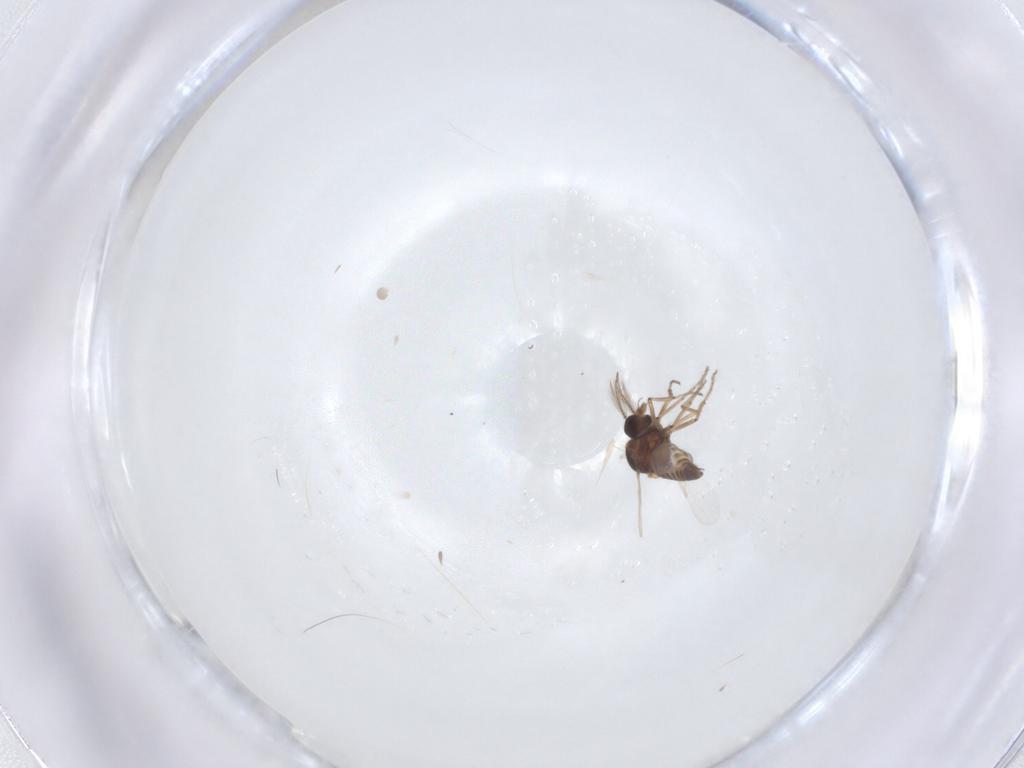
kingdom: Animalia
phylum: Arthropoda
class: Insecta
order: Diptera
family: Ceratopogonidae
